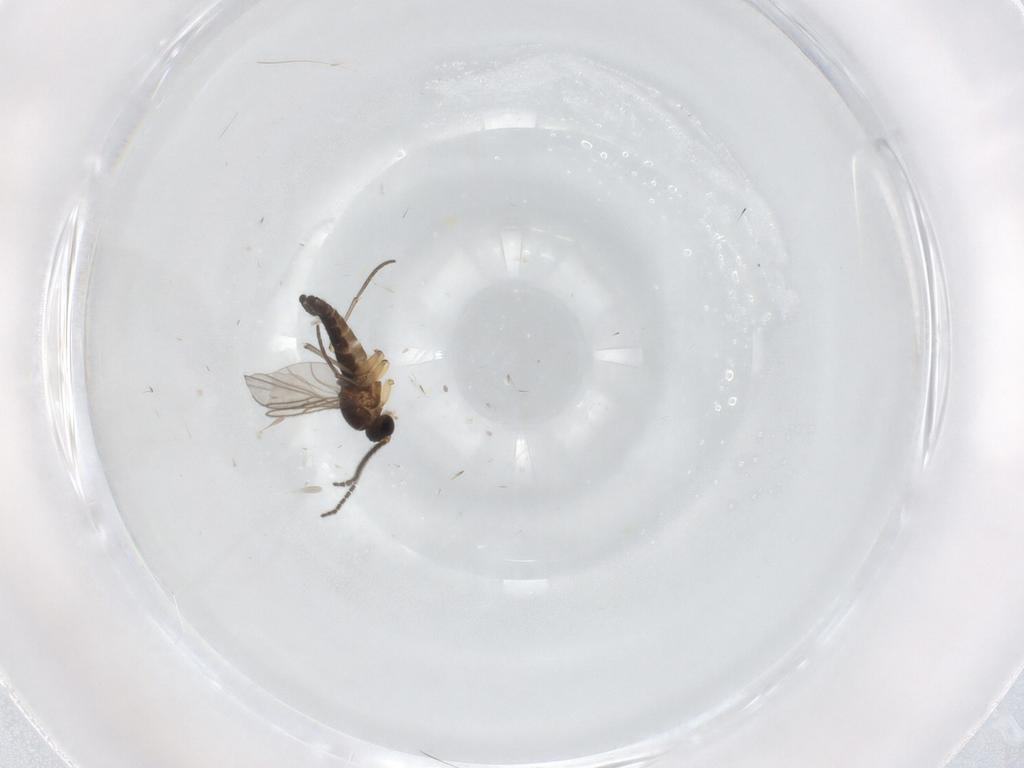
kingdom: Animalia
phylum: Arthropoda
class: Insecta
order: Diptera
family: Phoridae
